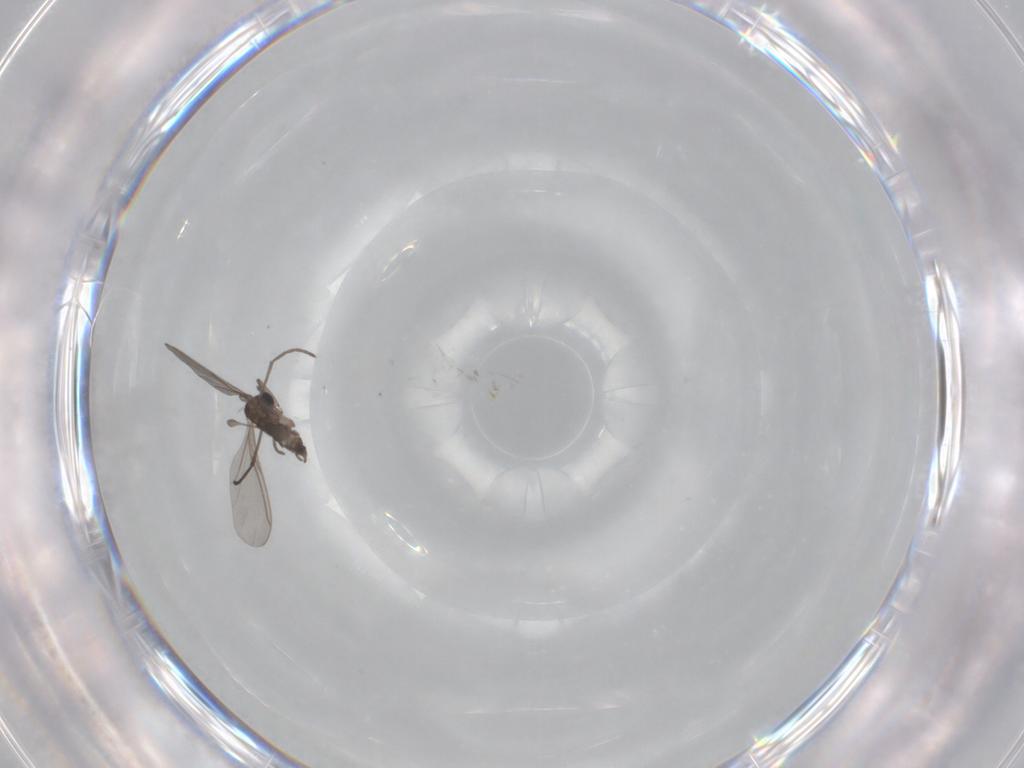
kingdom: Animalia
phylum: Arthropoda
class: Insecta
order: Diptera
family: Sciaridae
